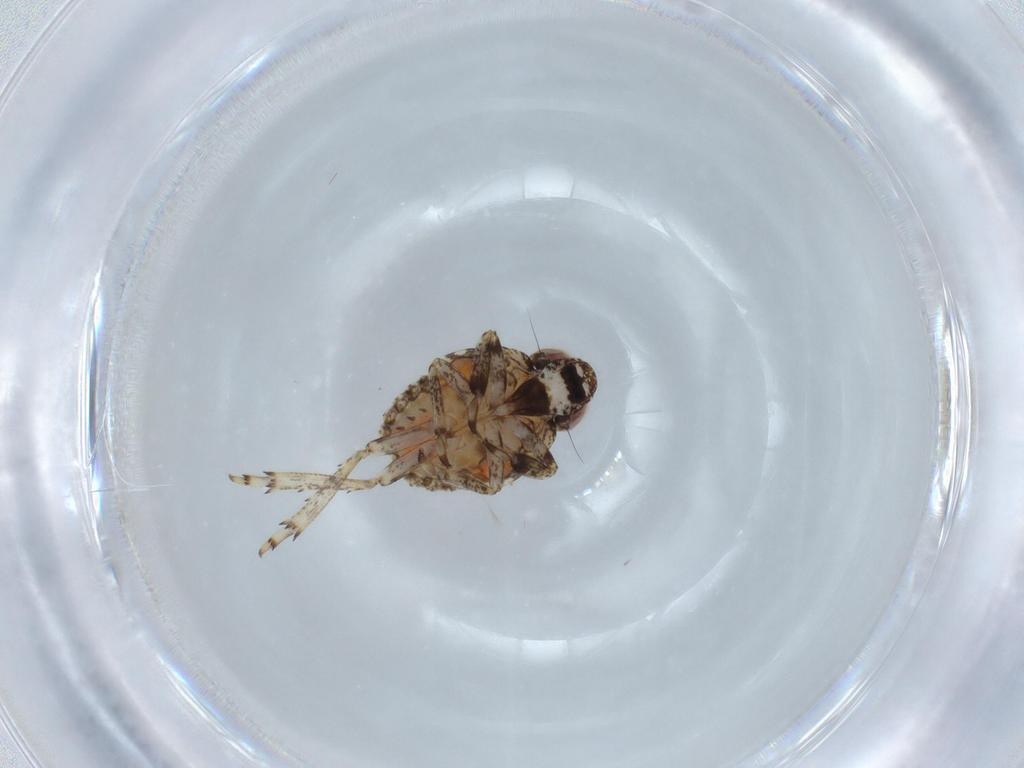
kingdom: Animalia
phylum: Arthropoda
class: Insecta
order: Hemiptera
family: Issidae
